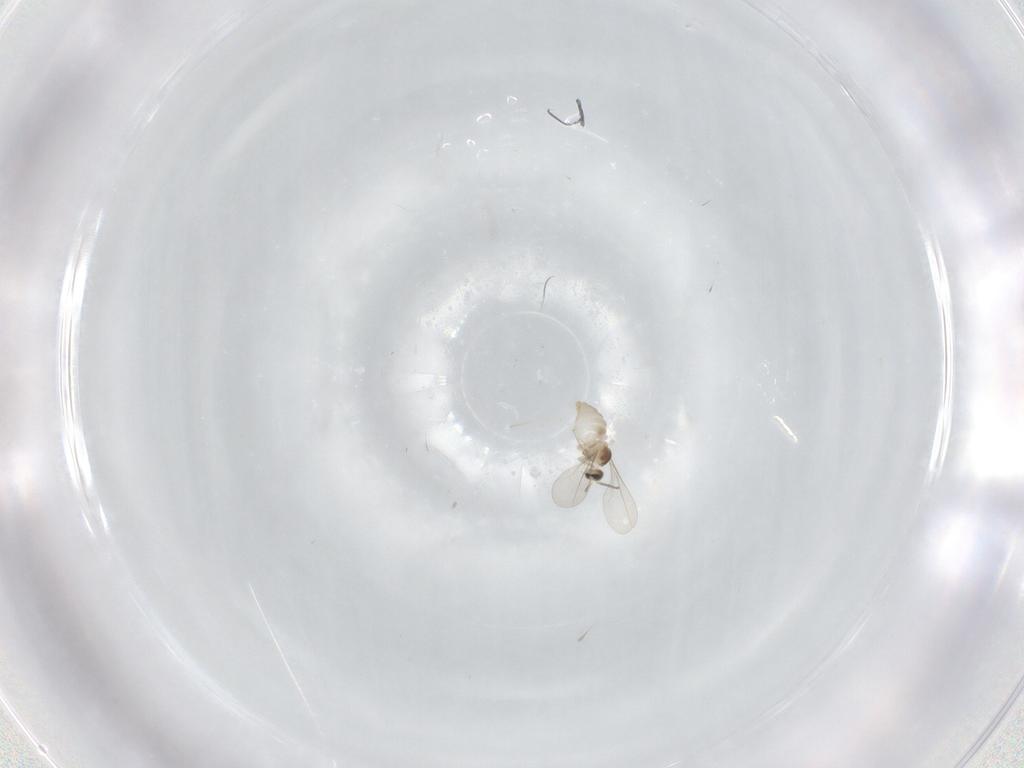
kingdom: Animalia
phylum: Arthropoda
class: Insecta
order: Diptera
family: Cecidomyiidae
